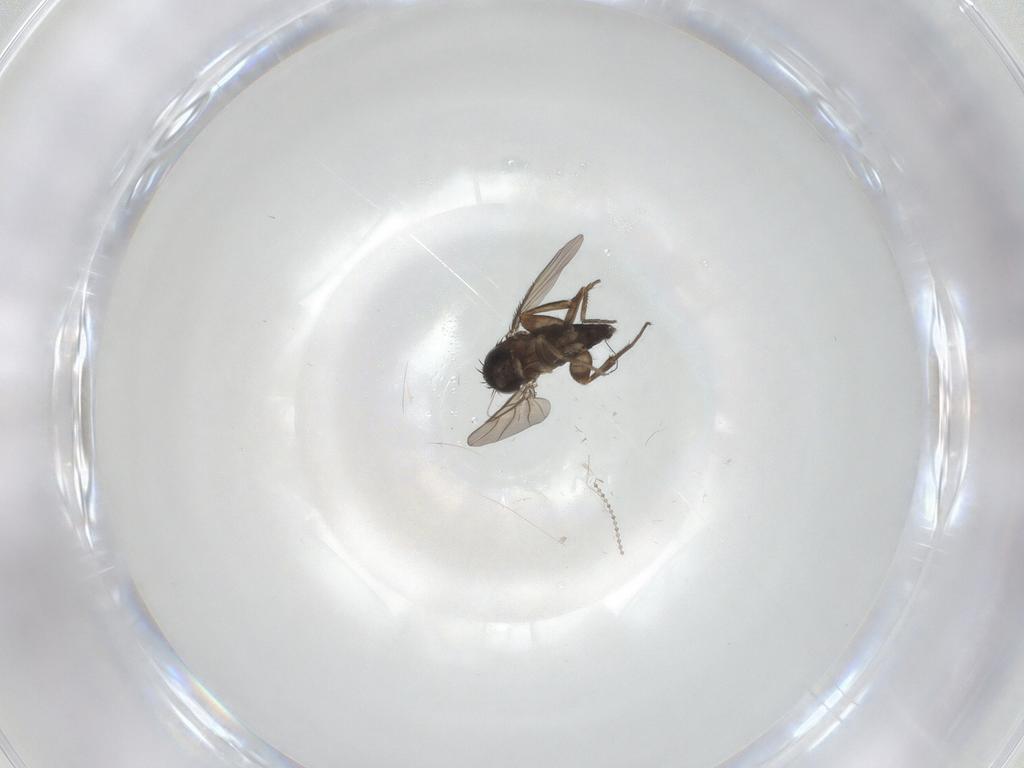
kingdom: Animalia
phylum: Arthropoda
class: Insecta
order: Diptera
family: Phoridae
